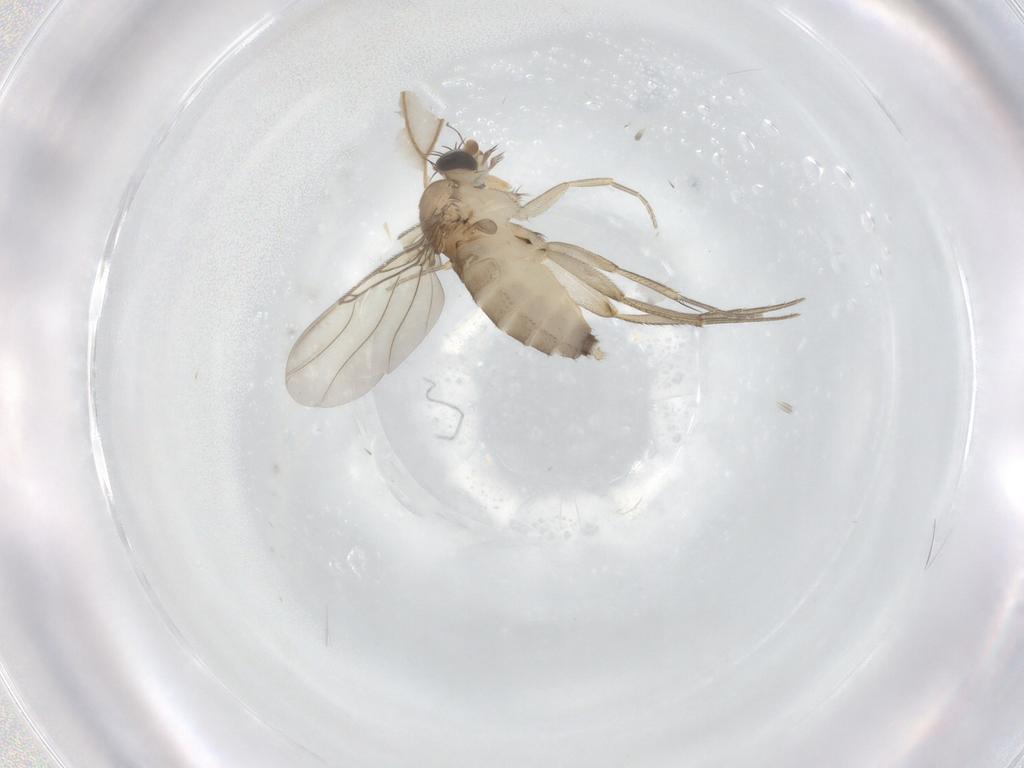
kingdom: Animalia
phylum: Arthropoda
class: Insecta
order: Diptera
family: Phoridae
